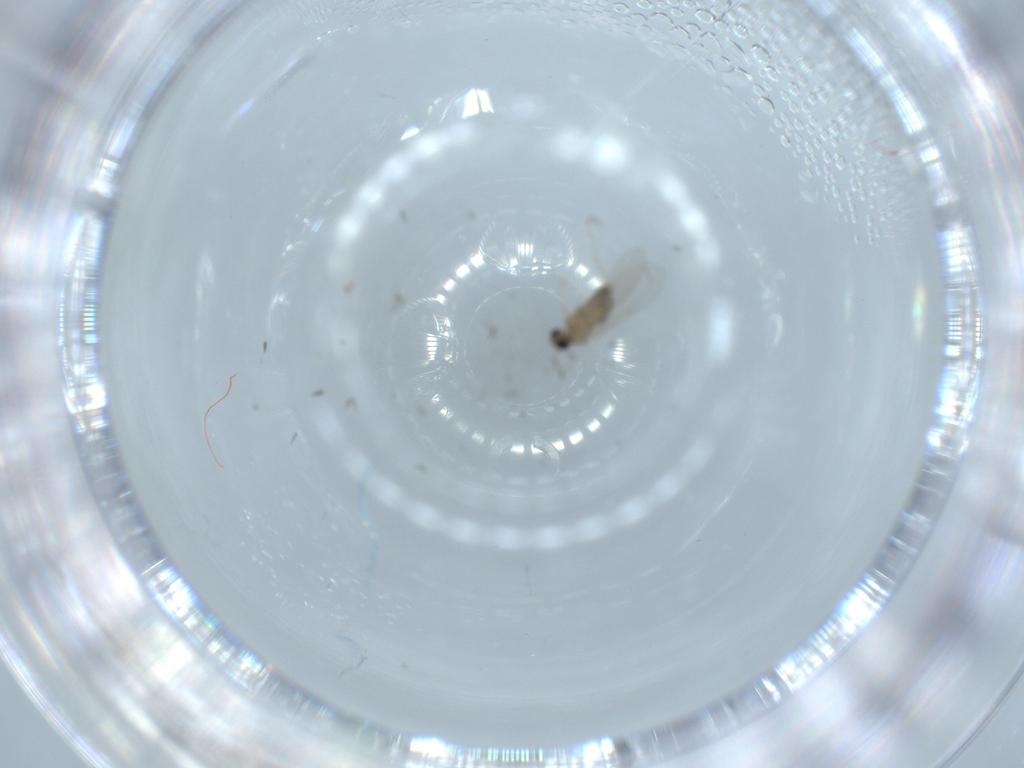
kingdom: Animalia
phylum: Arthropoda
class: Insecta
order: Diptera
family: Cecidomyiidae
